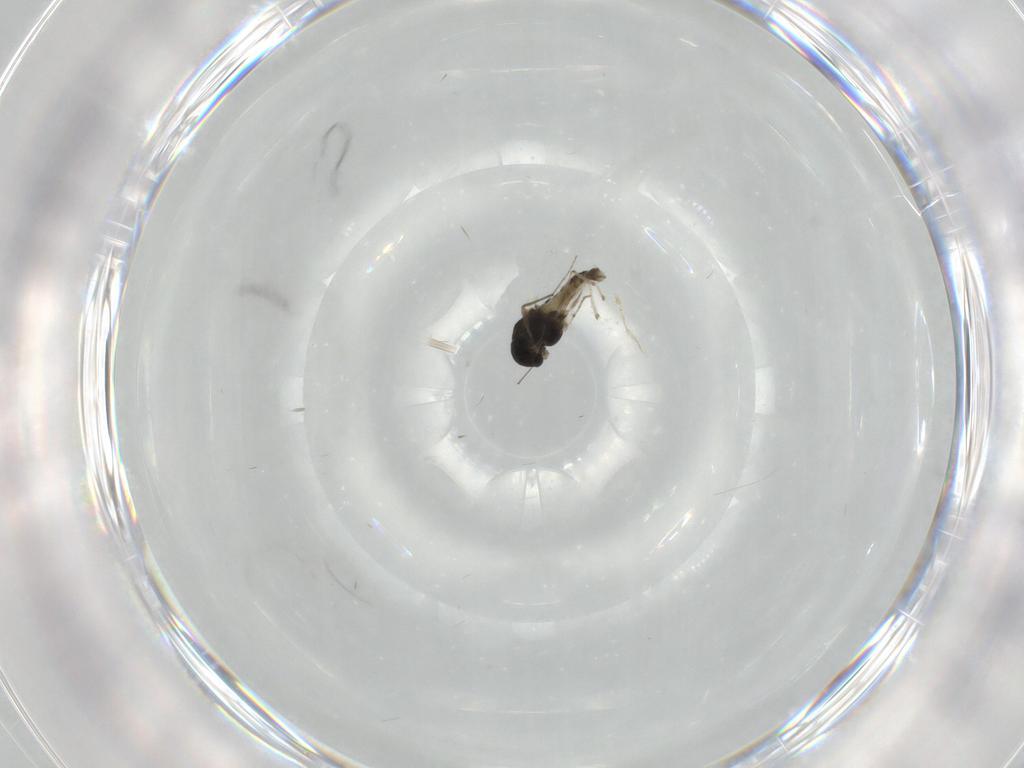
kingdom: Animalia
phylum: Arthropoda
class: Insecta
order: Diptera
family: Chironomidae
